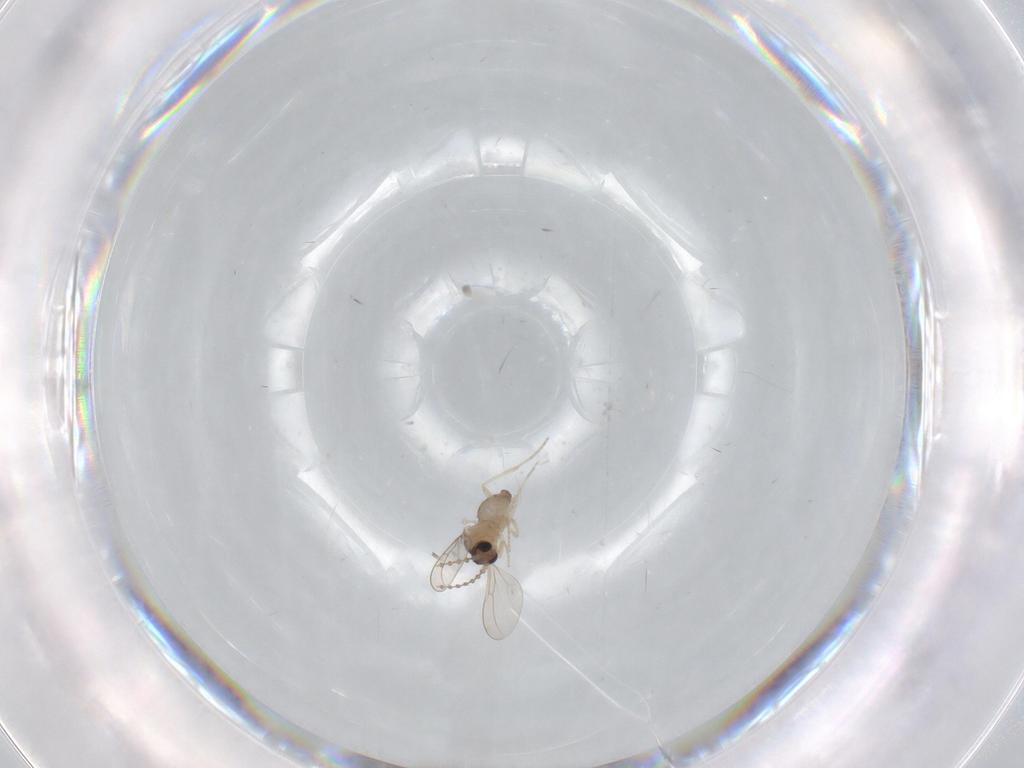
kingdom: Animalia
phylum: Arthropoda
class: Insecta
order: Diptera
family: Cecidomyiidae
